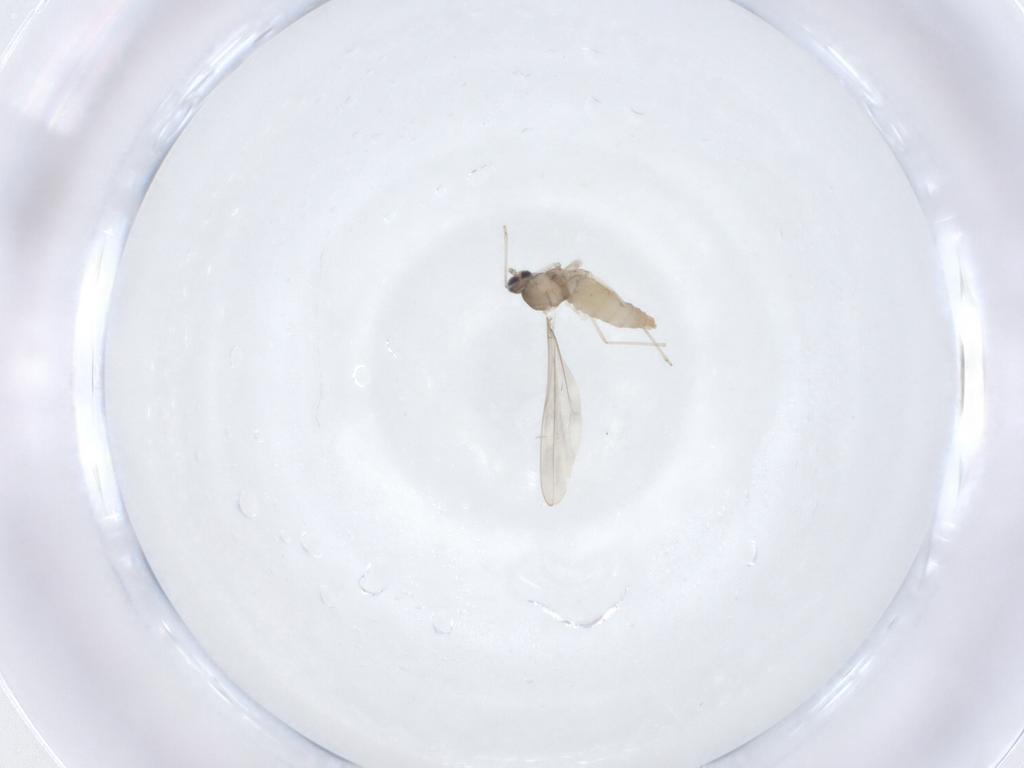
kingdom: Animalia
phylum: Arthropoda
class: Insecta
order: Diptera
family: Cecidomyiidae
